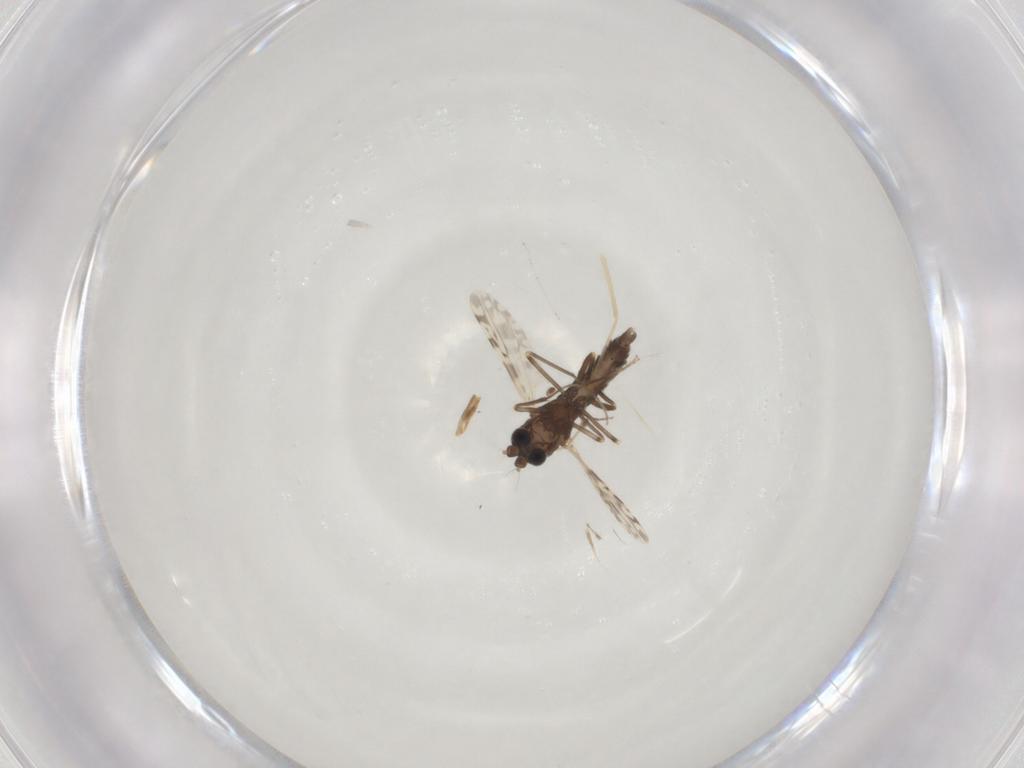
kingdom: Animalia
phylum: Arthropoda
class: Insecta
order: Diptera
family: Ceratopogonidae
